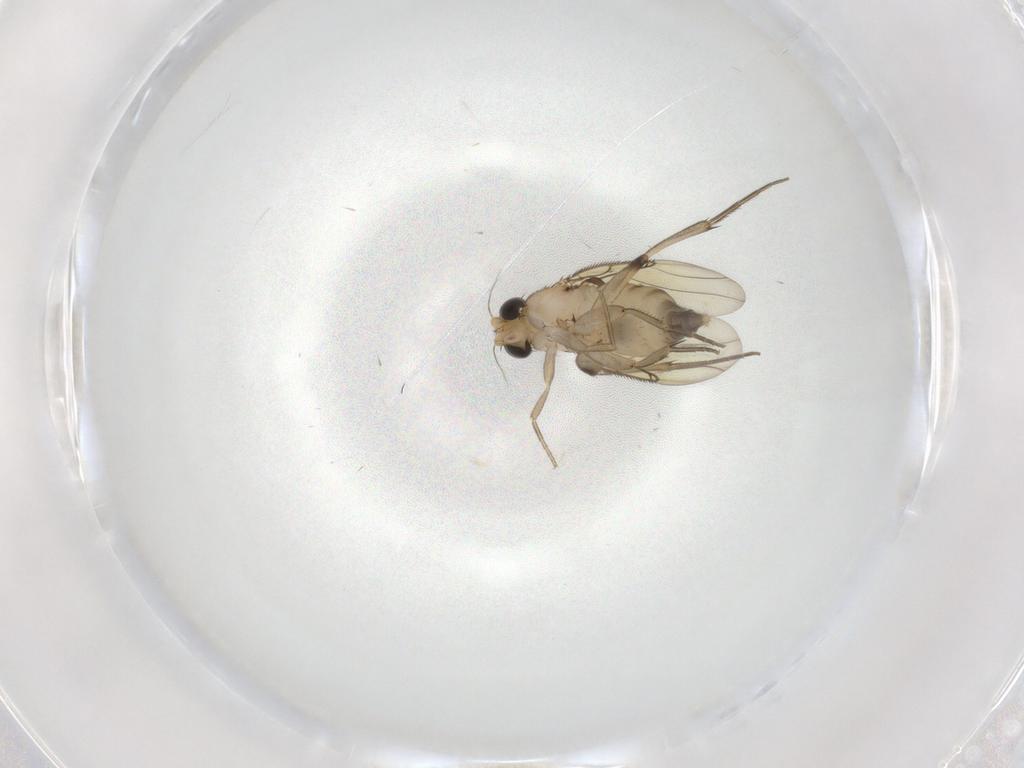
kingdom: Animalia
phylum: Arthropoda
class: Insecta
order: Diptera
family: Phoridae
